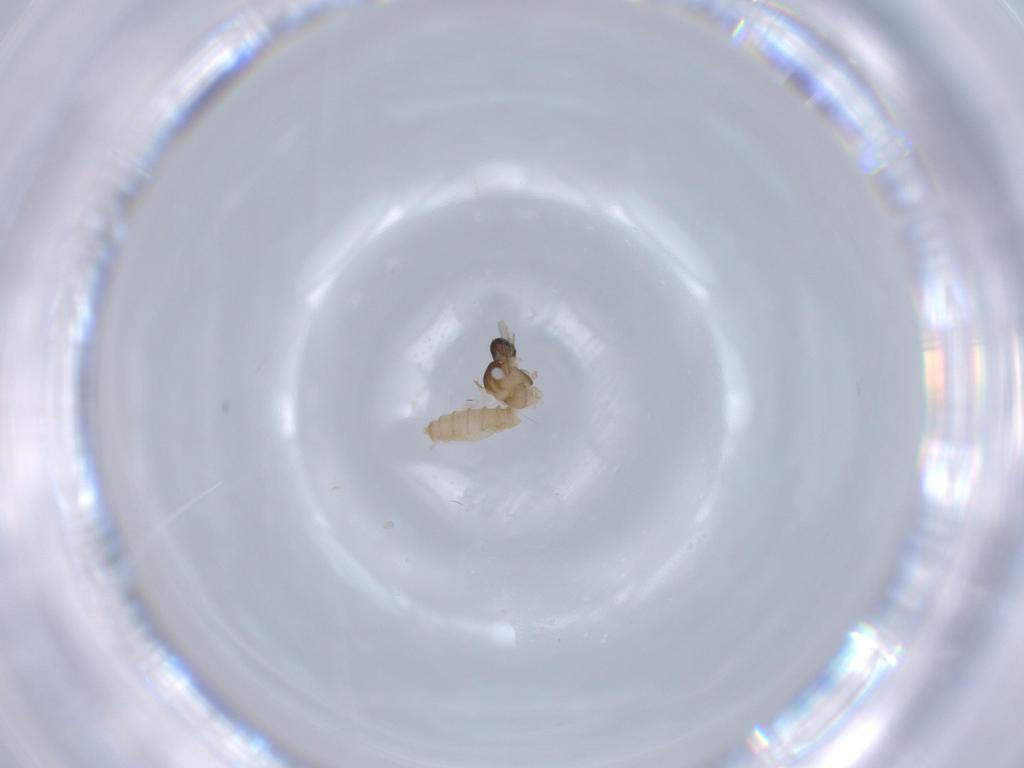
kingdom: Animalia
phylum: Arthropoda
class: Insecta
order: Diptera
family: Cecidomyiidae
